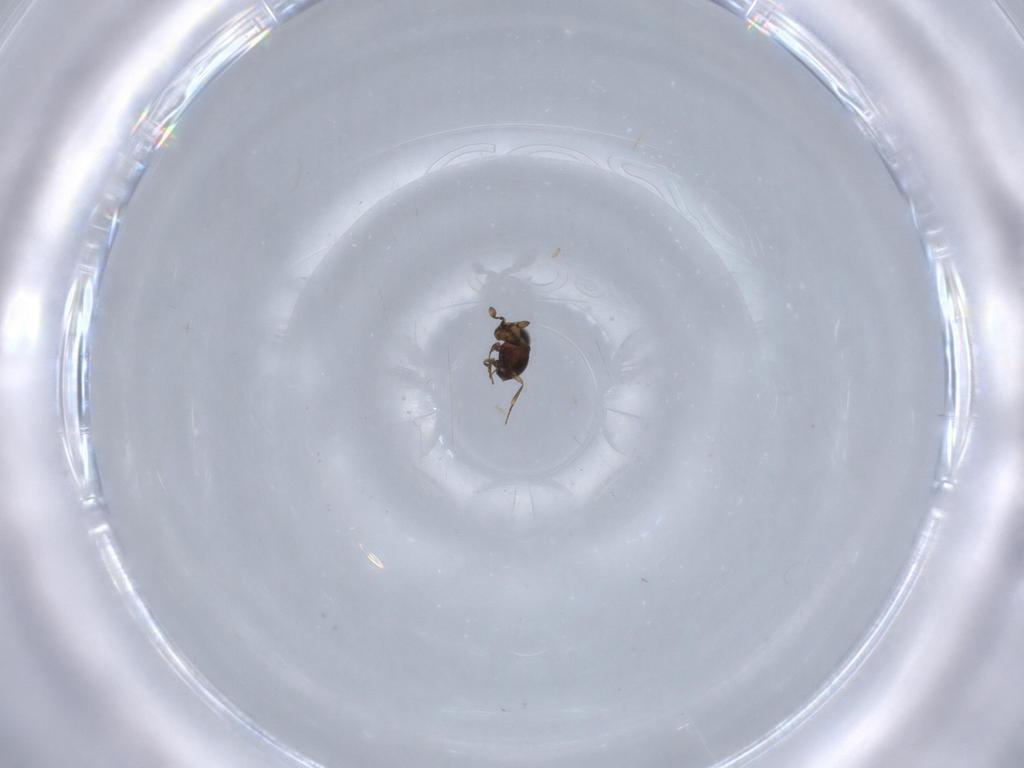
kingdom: Animalia
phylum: Arthropoda
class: Insecta
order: Hymenoptera
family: Scelionidae
